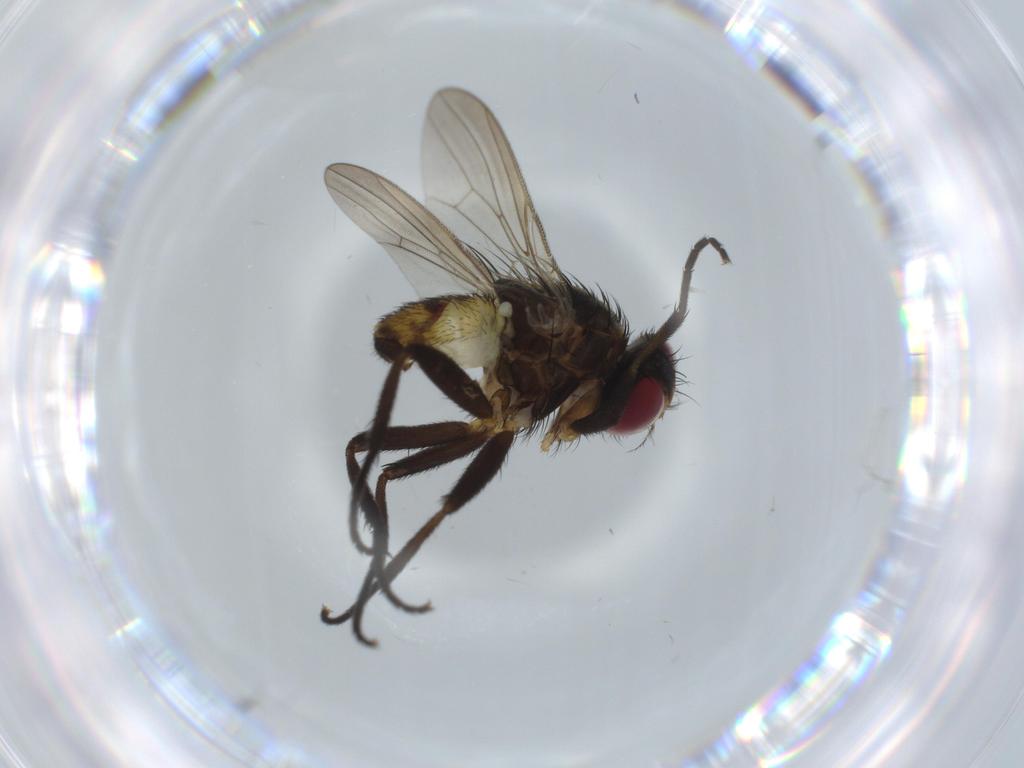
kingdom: Animalia
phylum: Arthropoda
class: Insecta
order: Diptera
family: Anthomyiidae
